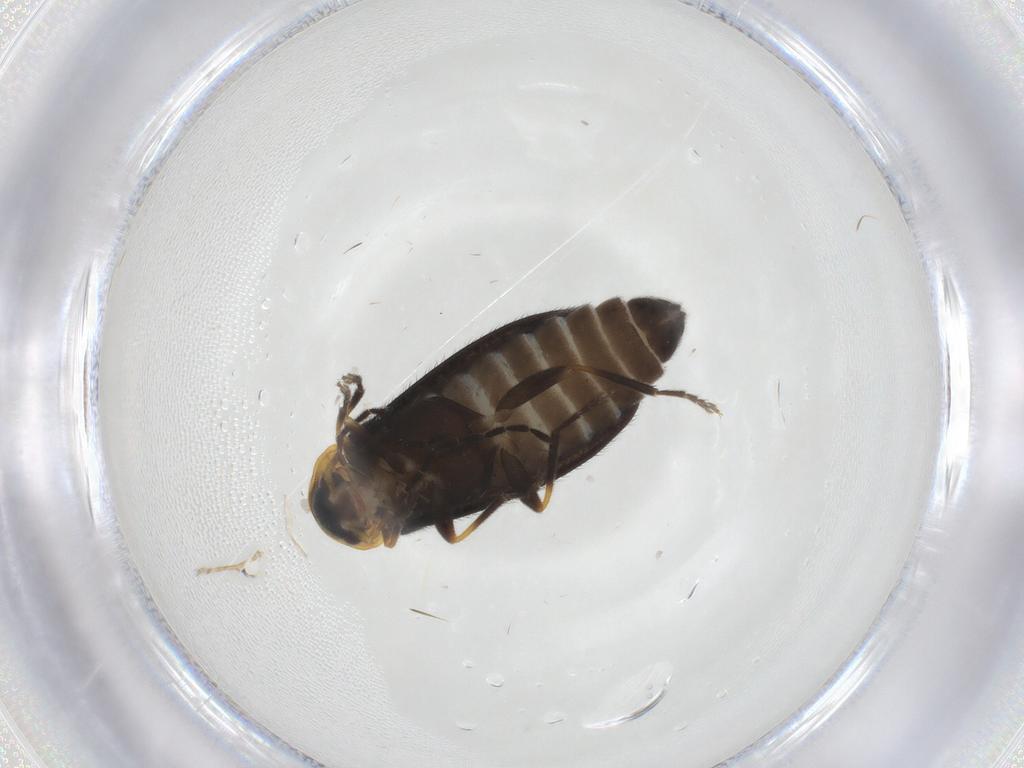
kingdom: Animalia
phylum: Arthropoda
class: Insecta
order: Coleoptera
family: Cantharidae
